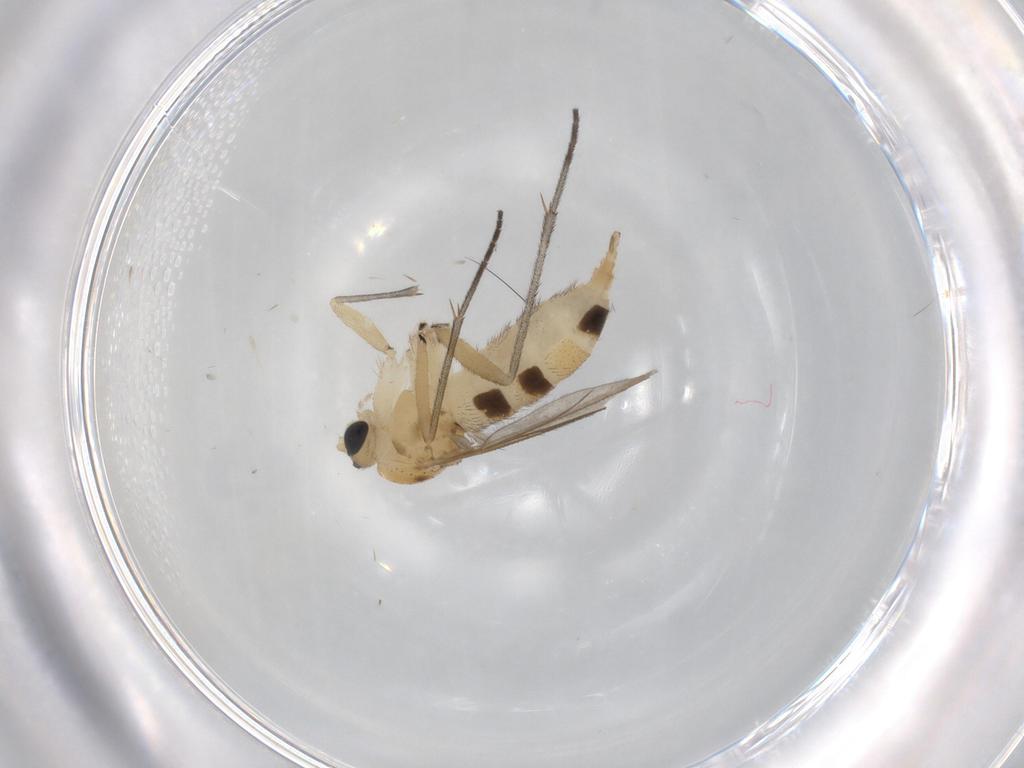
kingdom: Animalia
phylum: Arthropoda
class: Insecta
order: Diptera
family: Sciaridae
